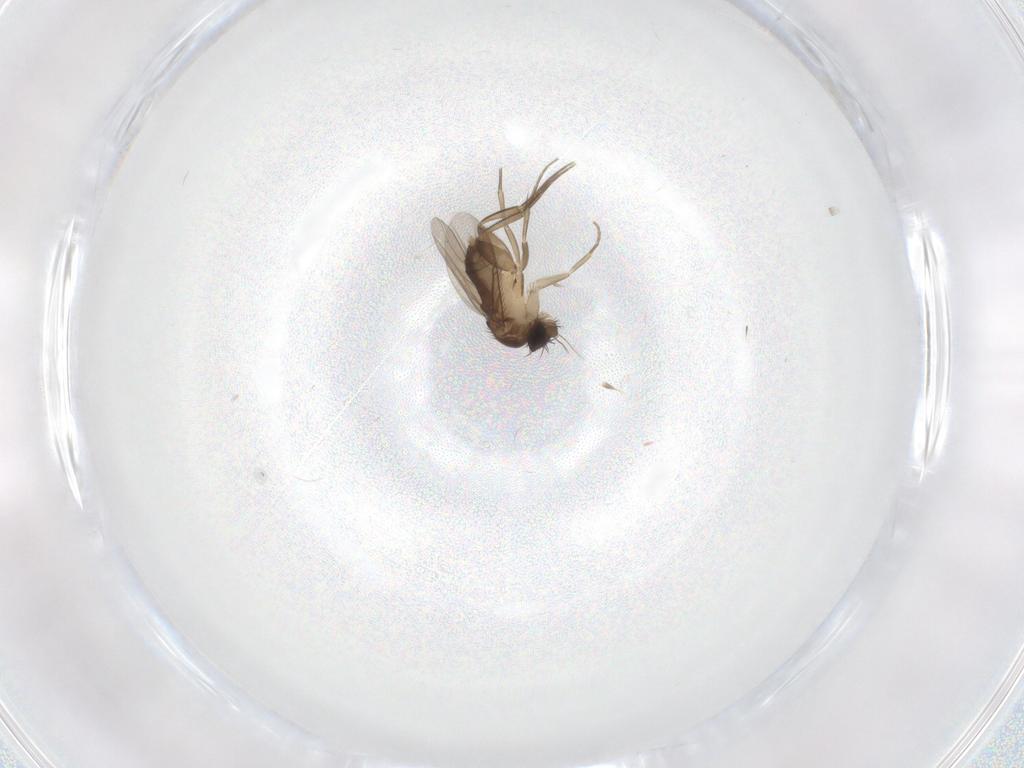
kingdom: Animalia
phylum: Arthropoda
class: Insecta
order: Diptera
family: Phoridae
